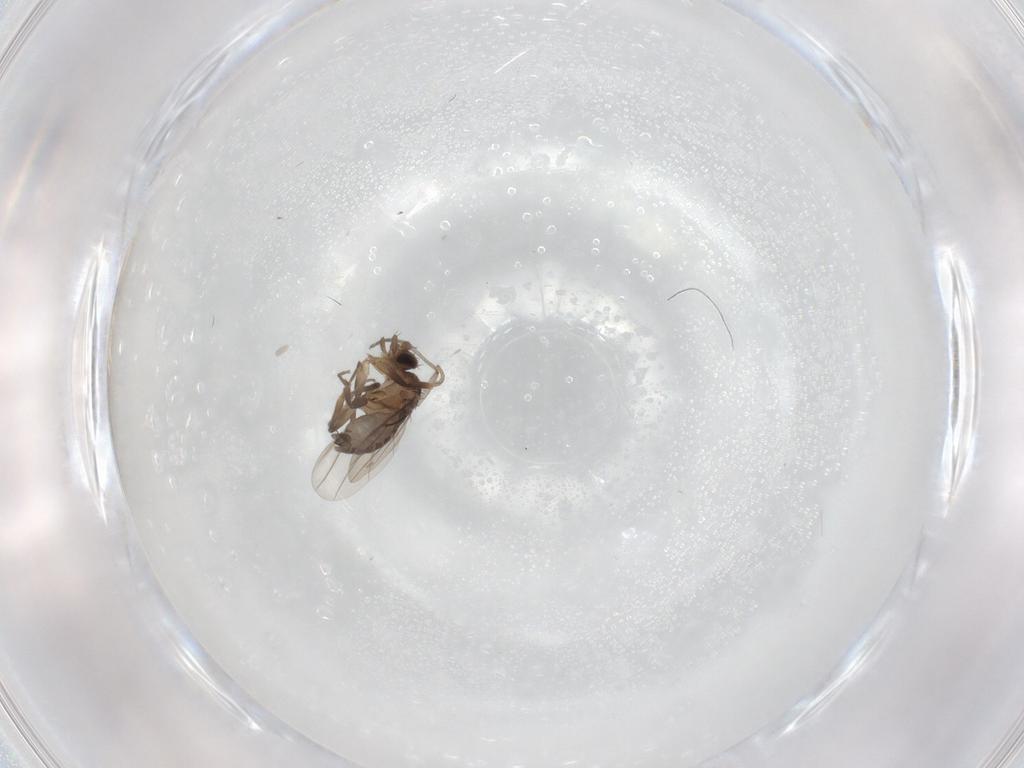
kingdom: Animalia
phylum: Arthropoda
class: Insecta
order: Diptera
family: Phoridae
